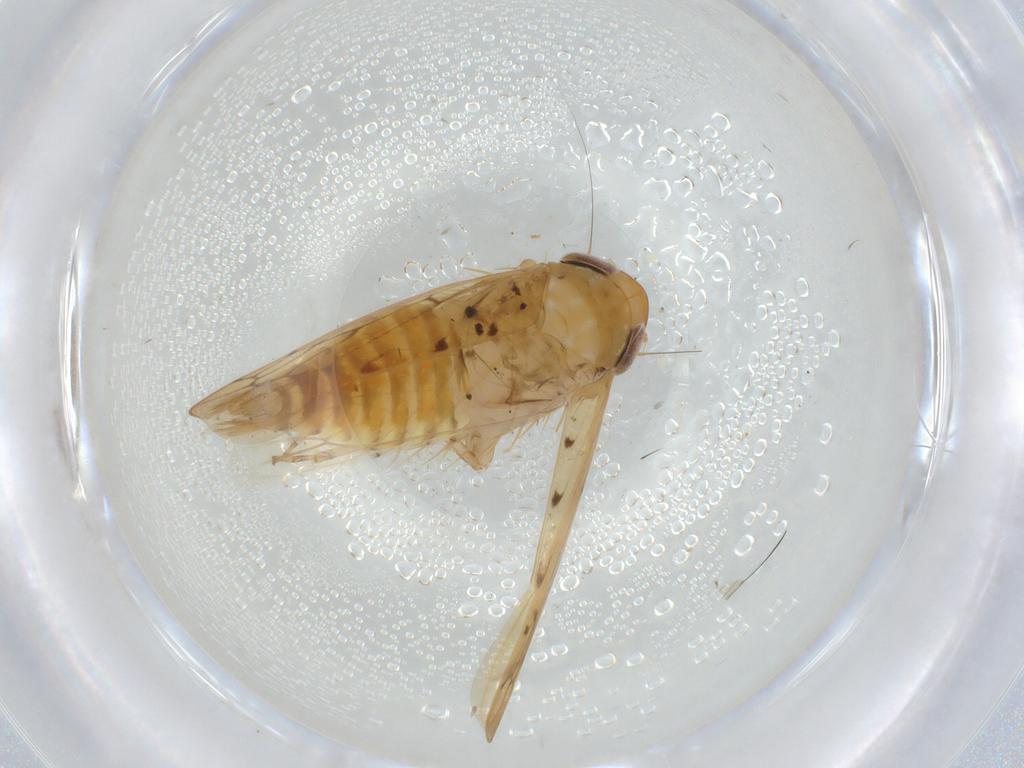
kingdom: Animalia
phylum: Arthropoda
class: Insecta
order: Hemiptera
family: Cicadellidae
